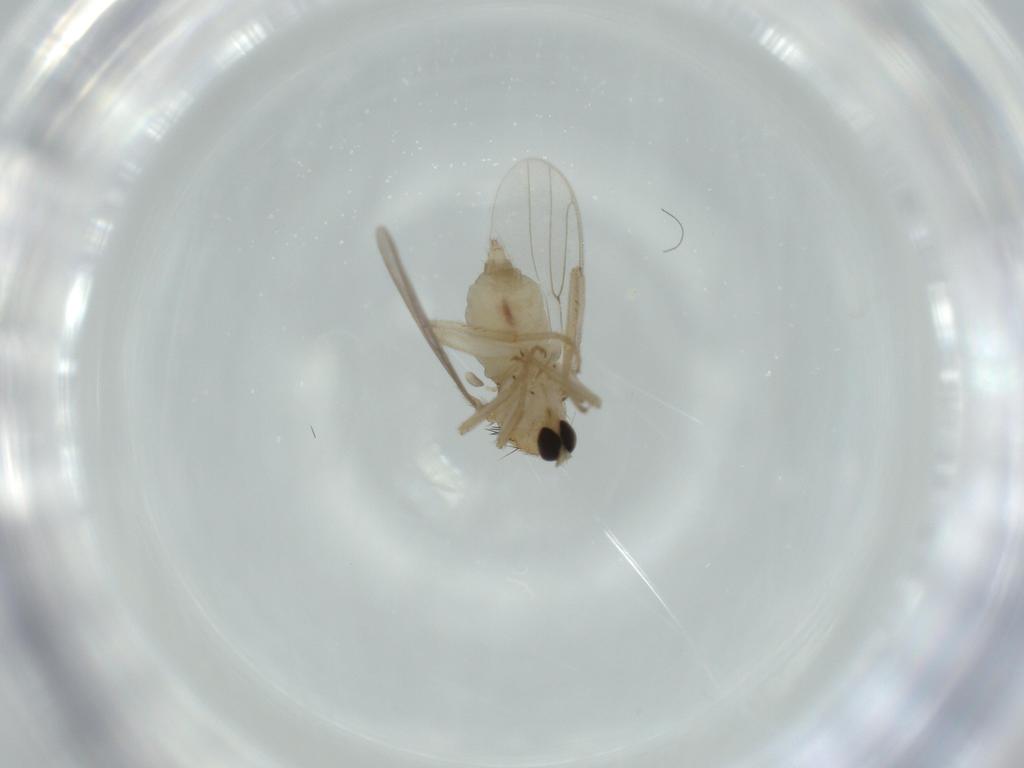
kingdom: Animalia
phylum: Arthropoda
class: Insecta
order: Diptera
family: Hybotidae
